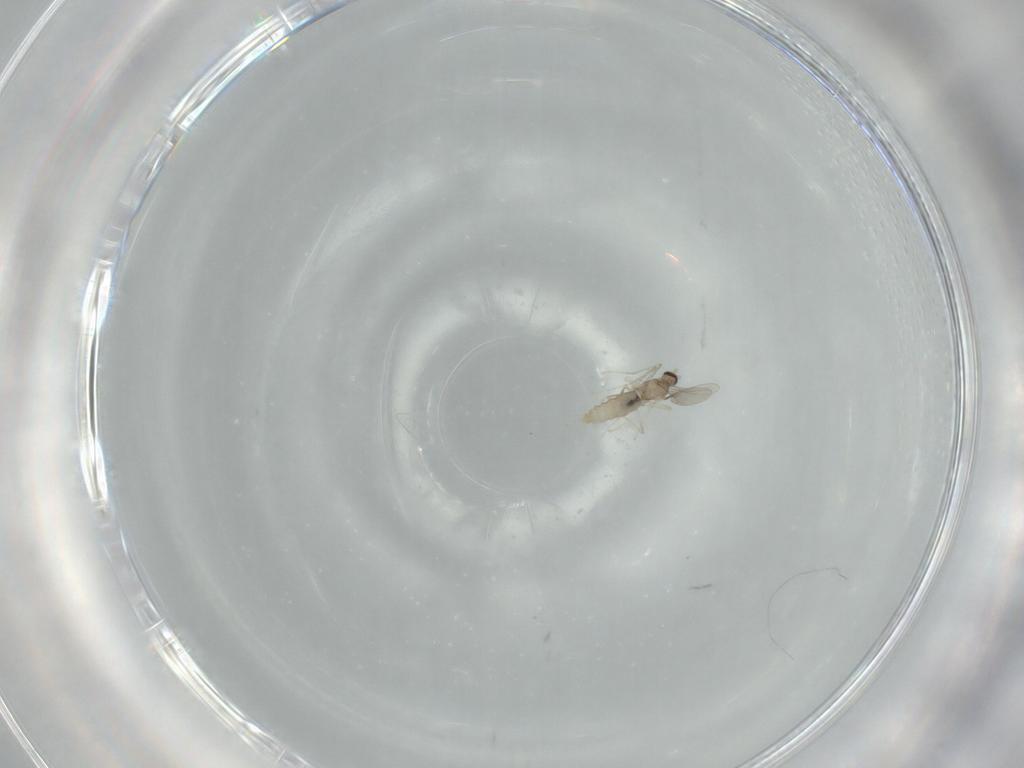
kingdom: Animalia
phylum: Arthropoda
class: Insecta
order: Diptera
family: Cecidomyiidae
